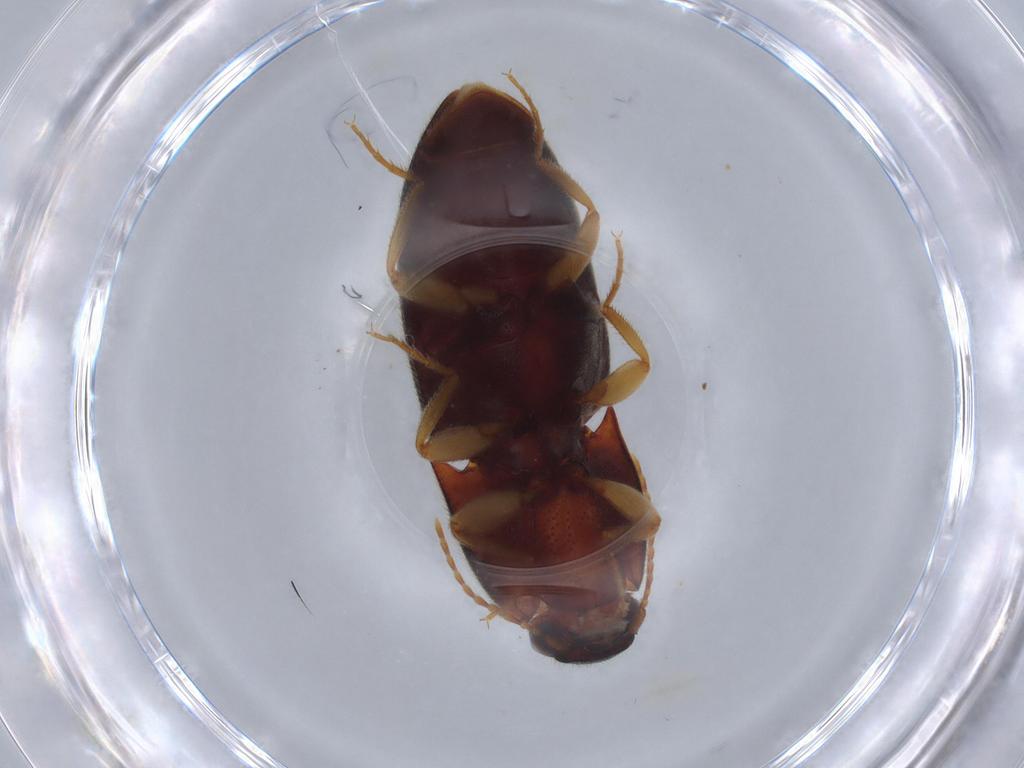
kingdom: Animalia
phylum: Arthropoda
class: Insecta
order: Coleoptera
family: Elateridae
